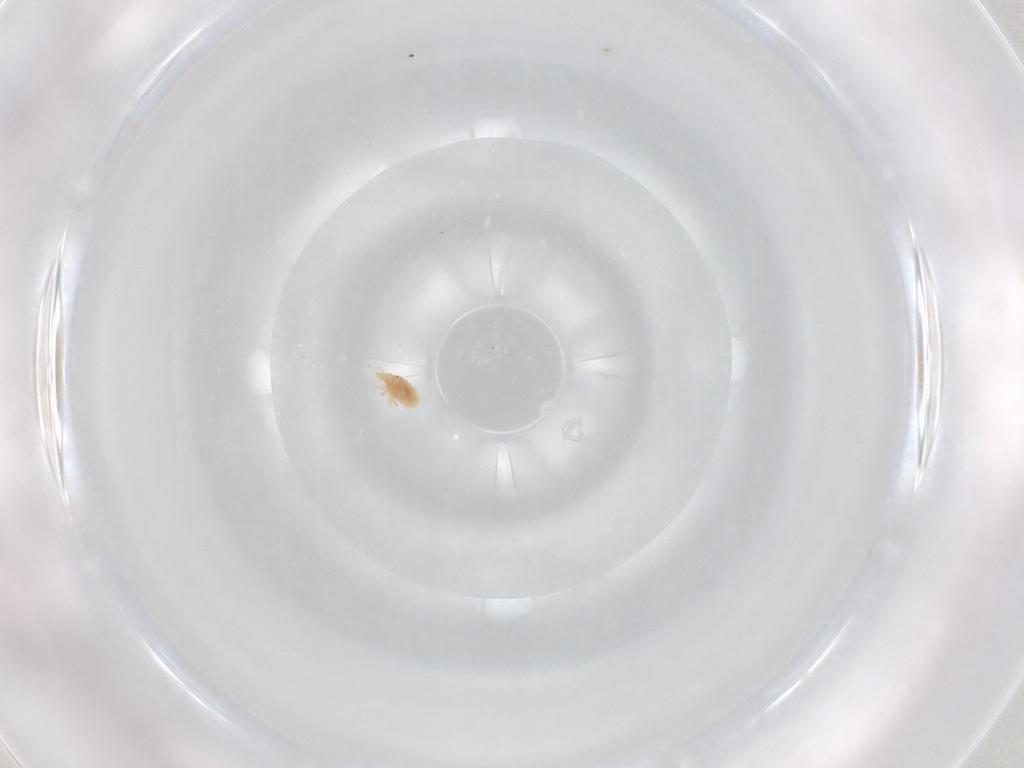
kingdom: Animalia
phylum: Arthropoda
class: Arachnida
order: Trombidiformes
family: Bdellidae
